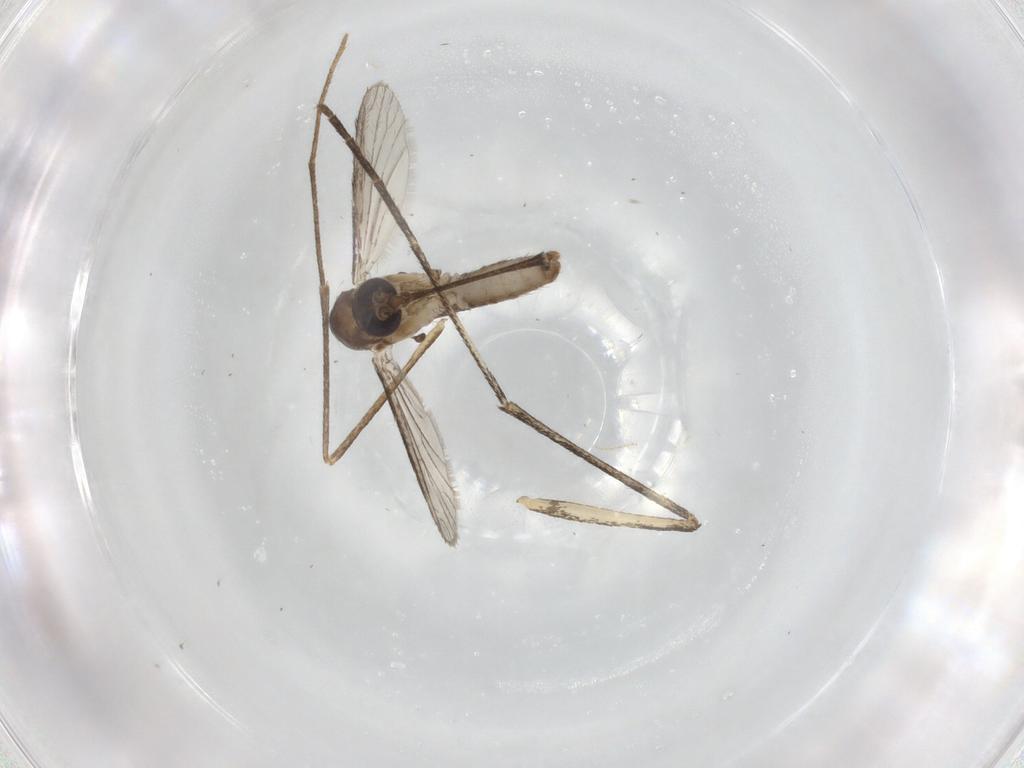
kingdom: Animalia
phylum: Arthropoda
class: Insecta
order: Diptera
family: Culicidae
